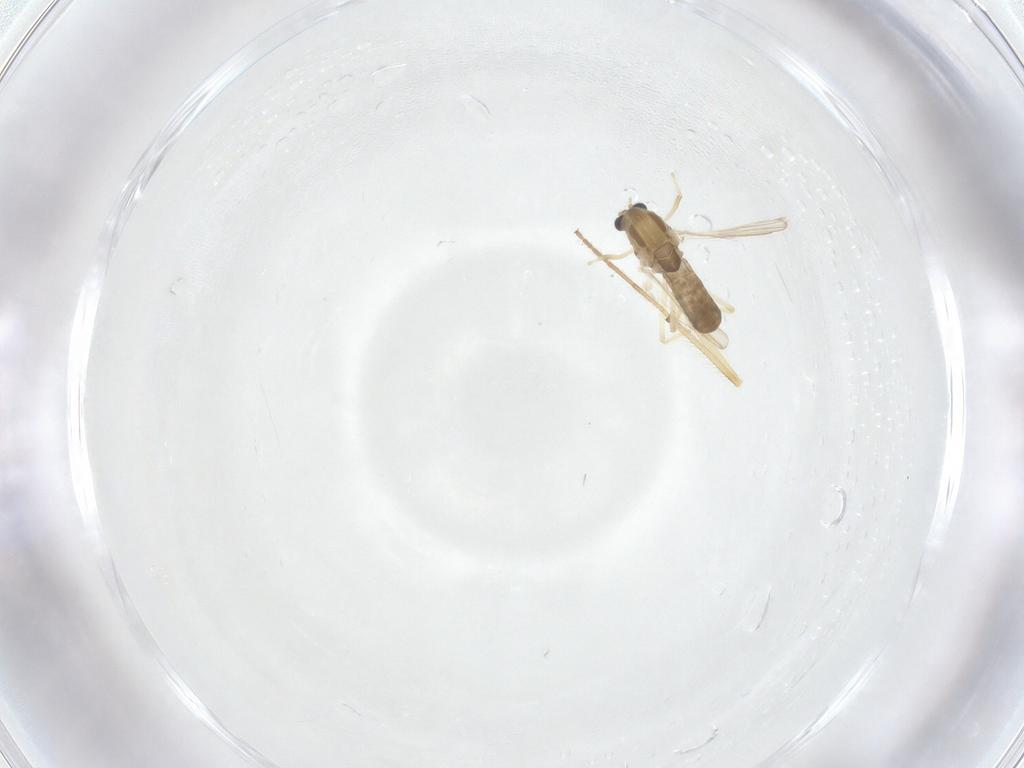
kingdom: Animalia
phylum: Arthropoda
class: Insecta
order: Diptera
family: Chironomidae
